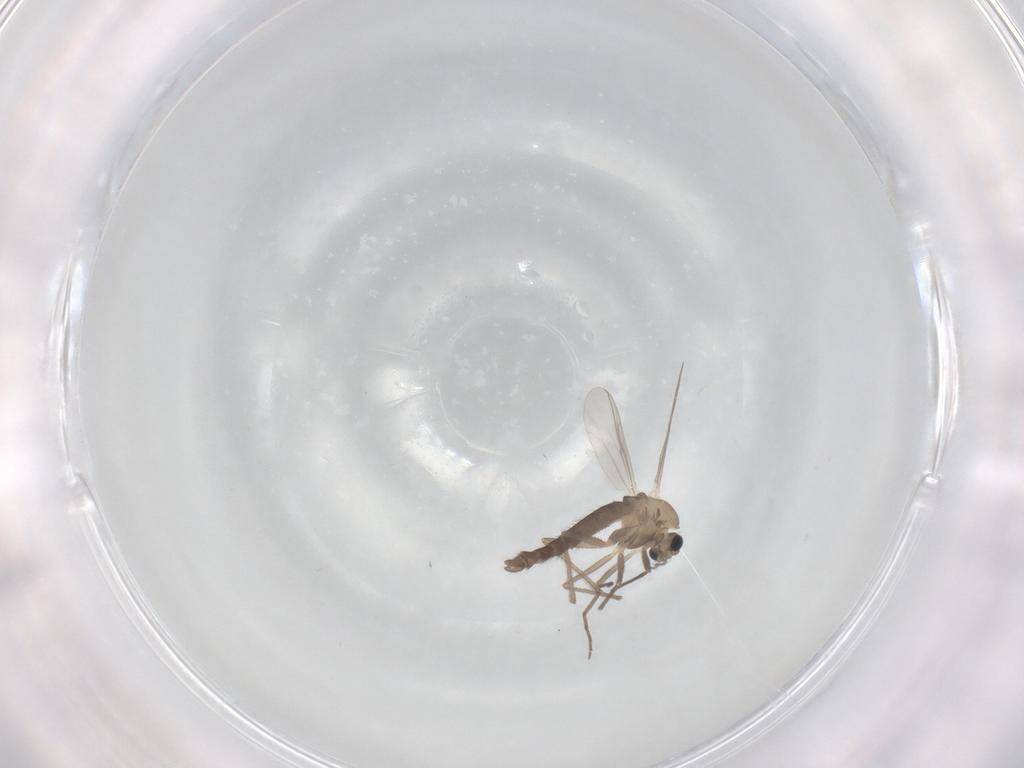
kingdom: Animalia
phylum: Arthropoda
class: Insecta
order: Diptera
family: Chironomidae
